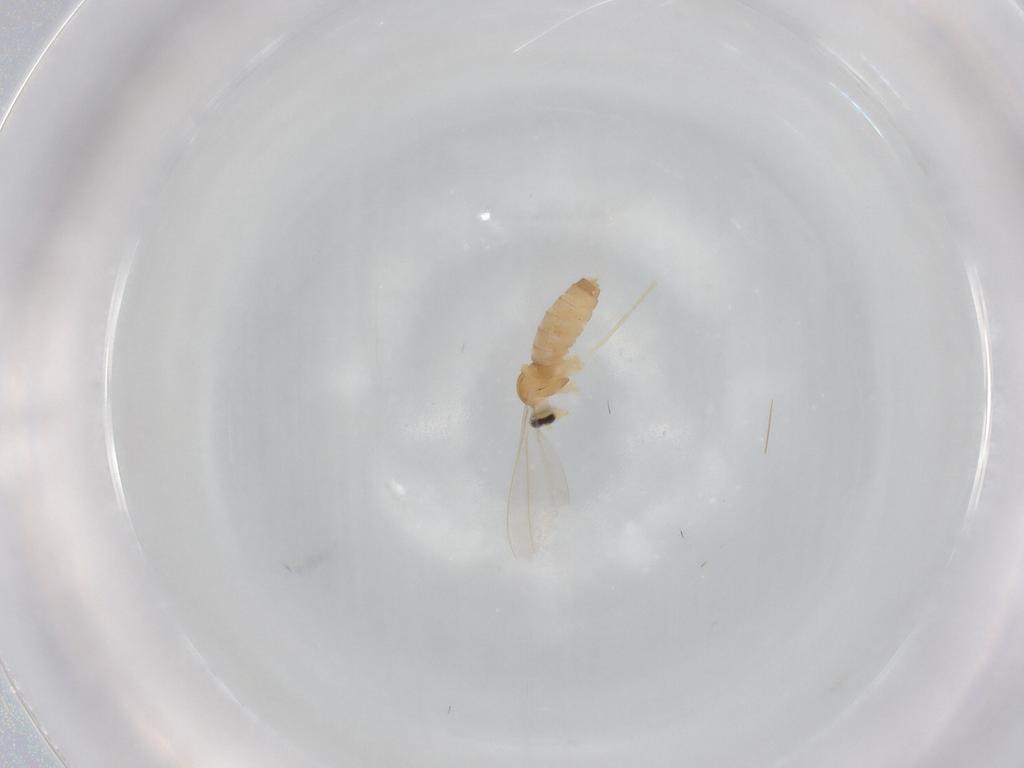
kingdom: Animalia
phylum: Arthropoda
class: Insecta
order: Diptera
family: Cecidomyiidae
